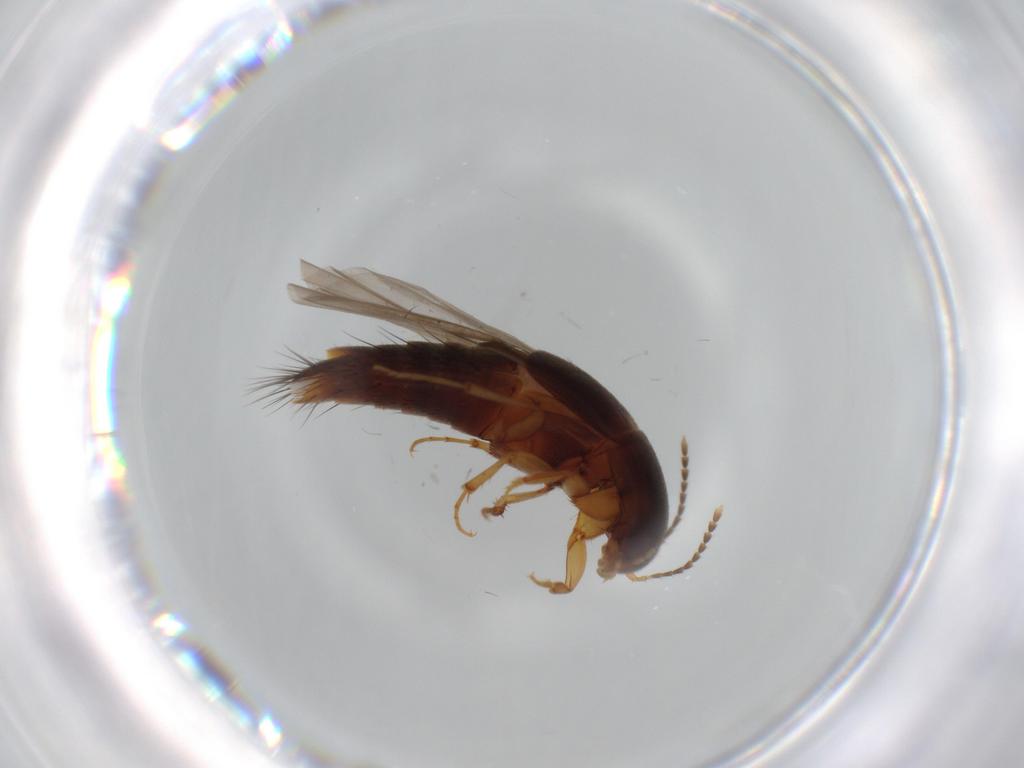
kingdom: Animalia
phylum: Arthropoda
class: Insecta
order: Coleoptera
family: Staphylinidae
